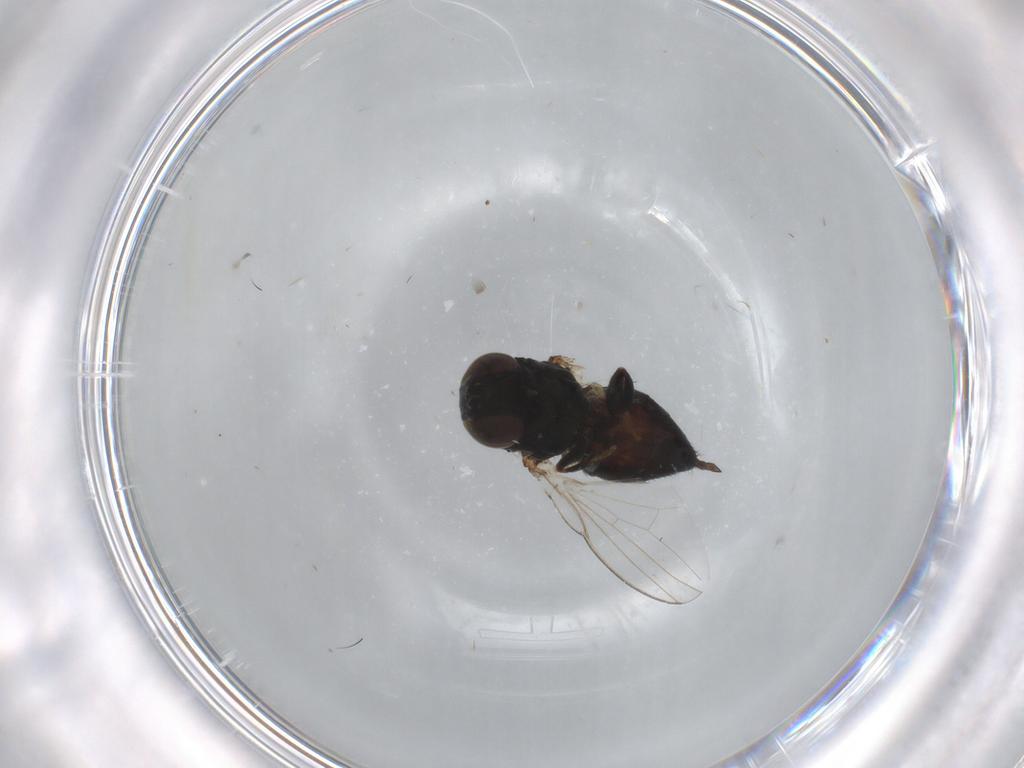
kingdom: Animalia
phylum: Arthropoda
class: Insecta
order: Diptera
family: Milichiidae
